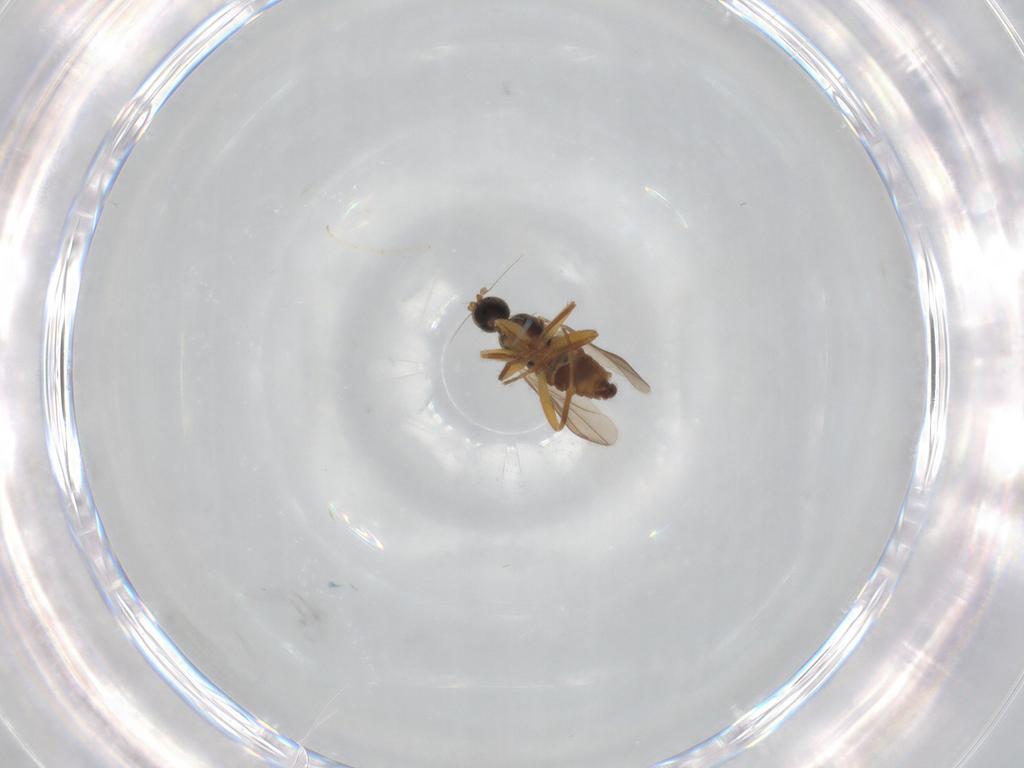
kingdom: Animalia
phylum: Arthropoda
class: Insecta
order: Diptera
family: Hybotidae
